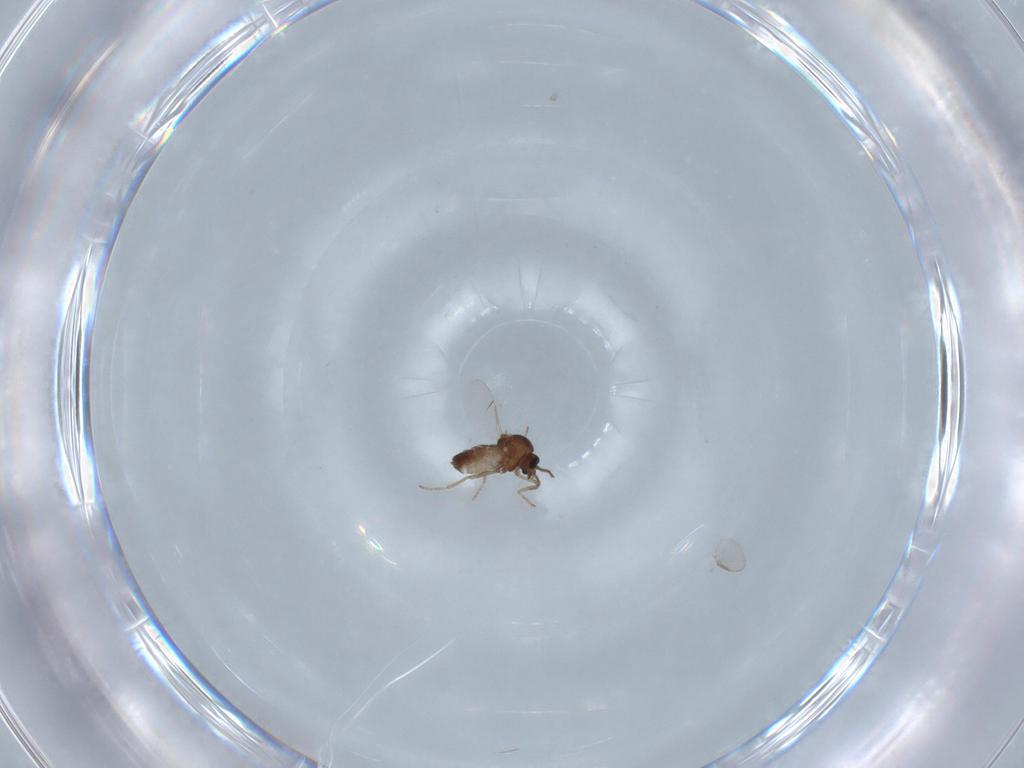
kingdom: Animalia
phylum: Arthropoda
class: Insecta
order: Diptera
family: Ceratopogonidae
